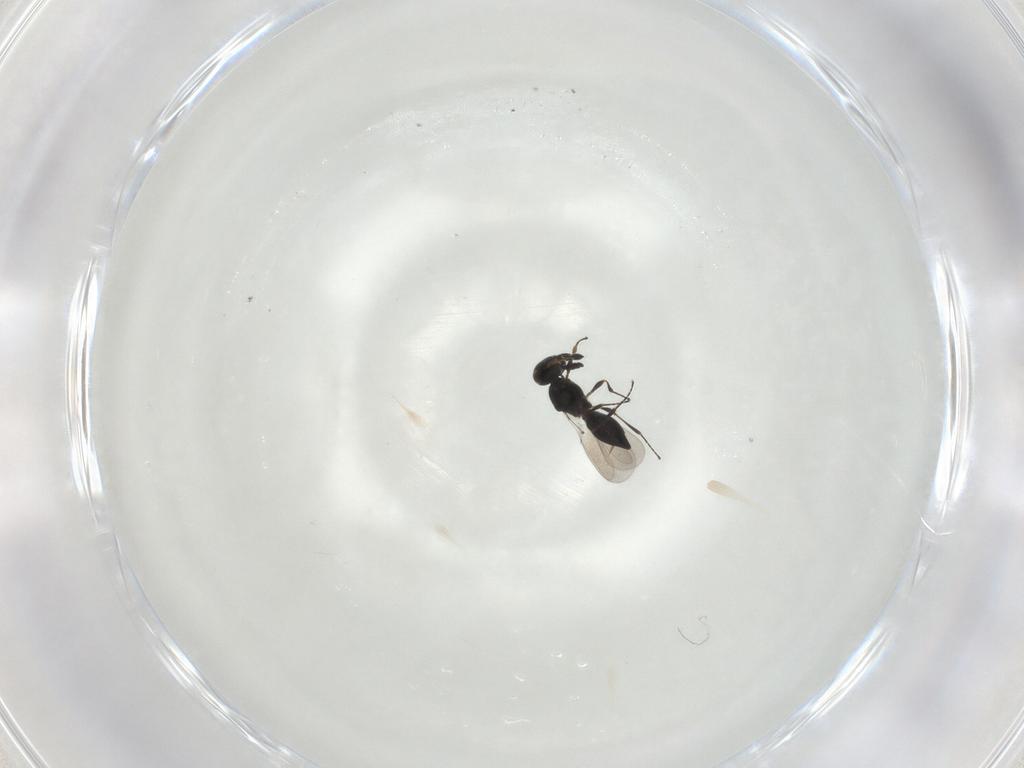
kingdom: Animalia
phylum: Arthropoda
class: Insecta
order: Hymenoptera
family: Platygastridae
